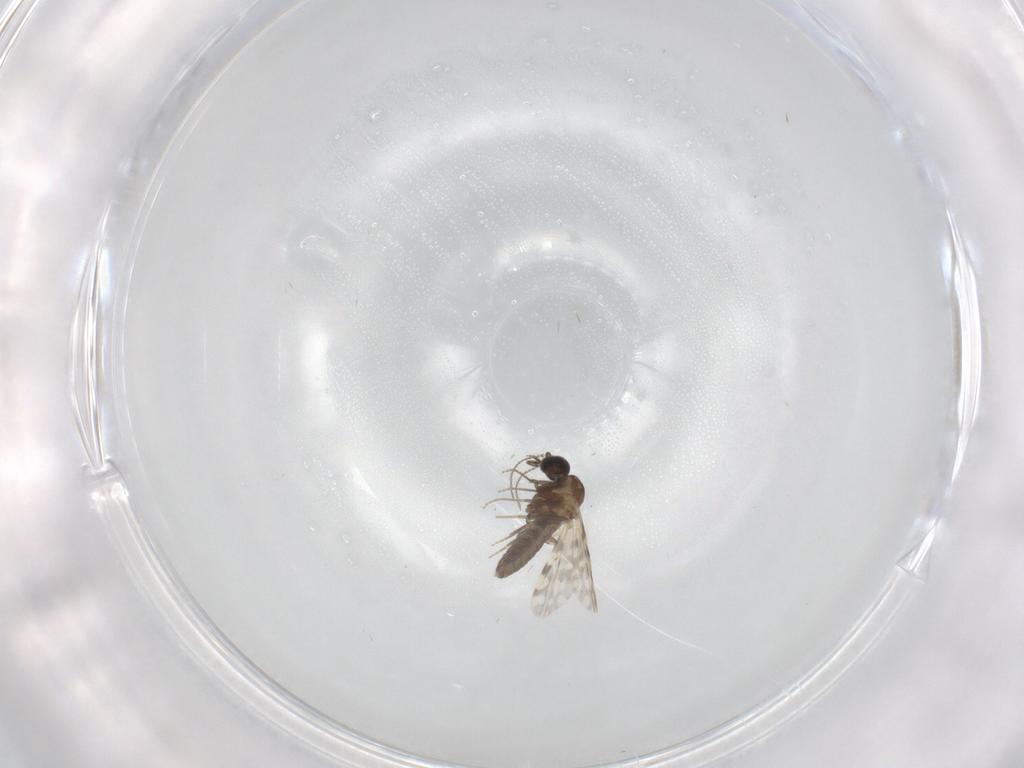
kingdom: Animalia
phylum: Arthropoda
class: Insecta
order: Diptera
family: Ceratopogonidae
